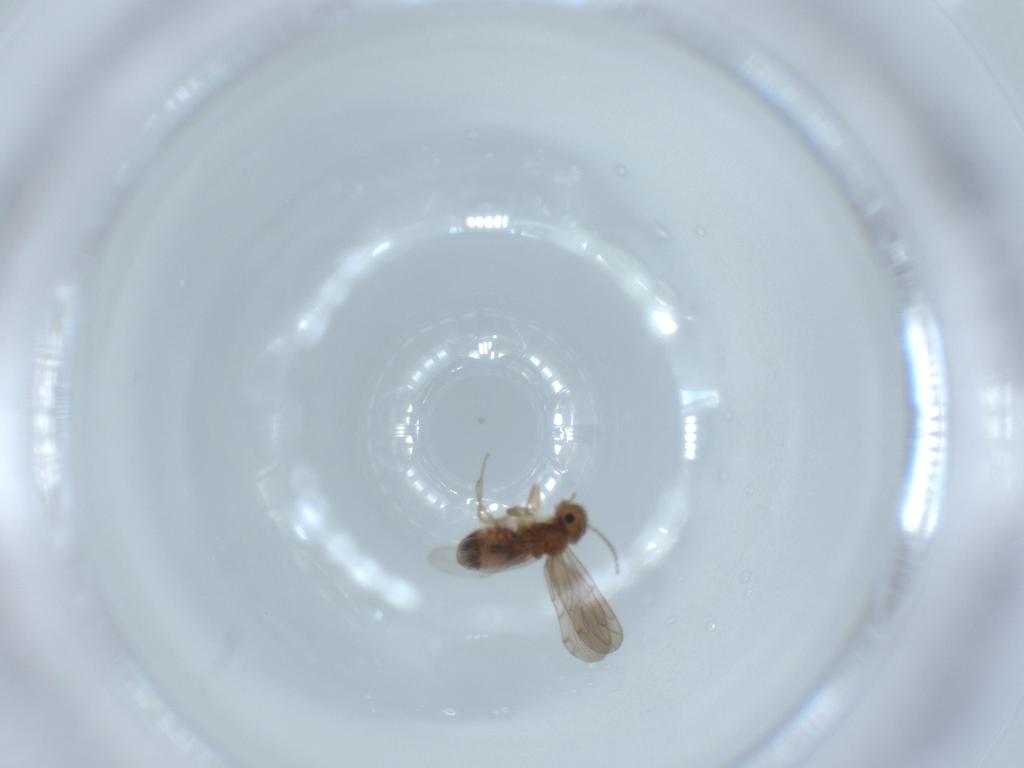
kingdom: Animalia
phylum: Arthropoda
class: Insecta
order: Psocodea
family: Ectopsocidae
